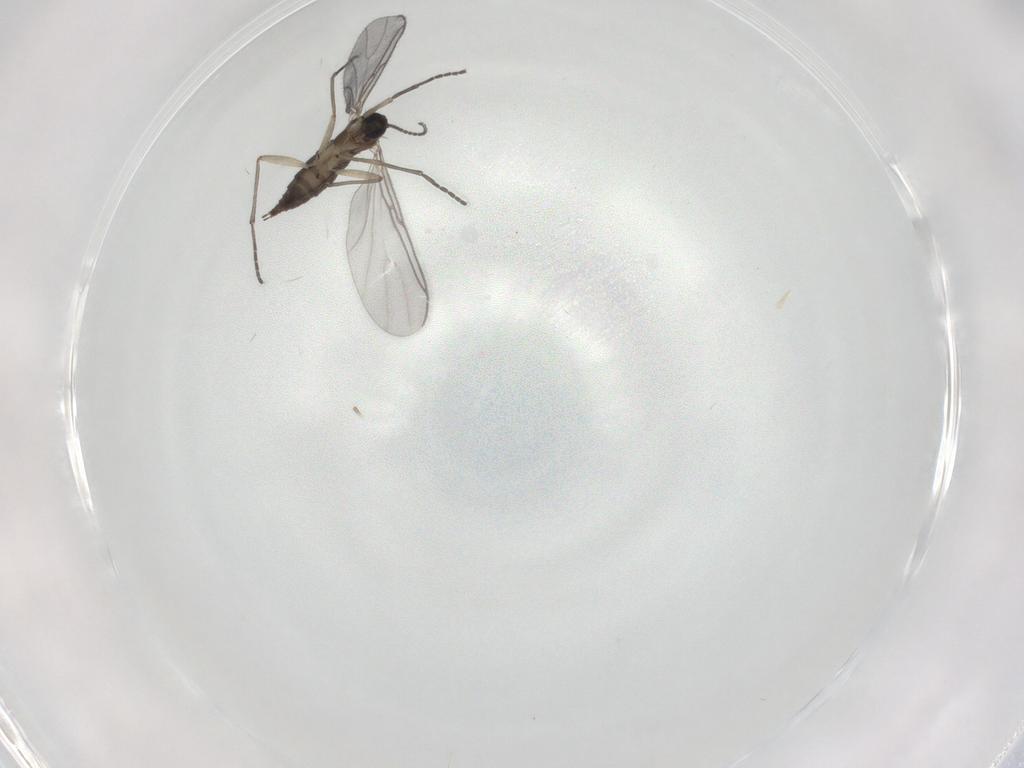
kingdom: Animalia
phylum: Arthropoda
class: Insecta
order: Diptera
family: Sciaridae
